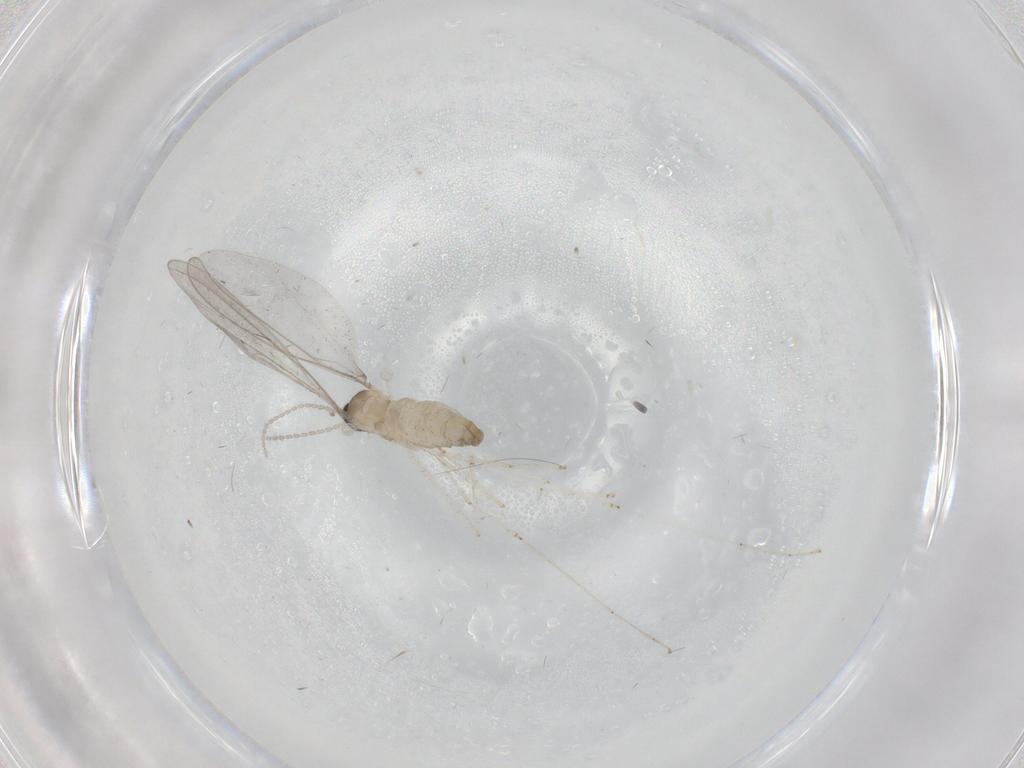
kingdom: Animalia
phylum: Arthropoda
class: Insecta
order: Diptera
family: Cecidomyiidae
